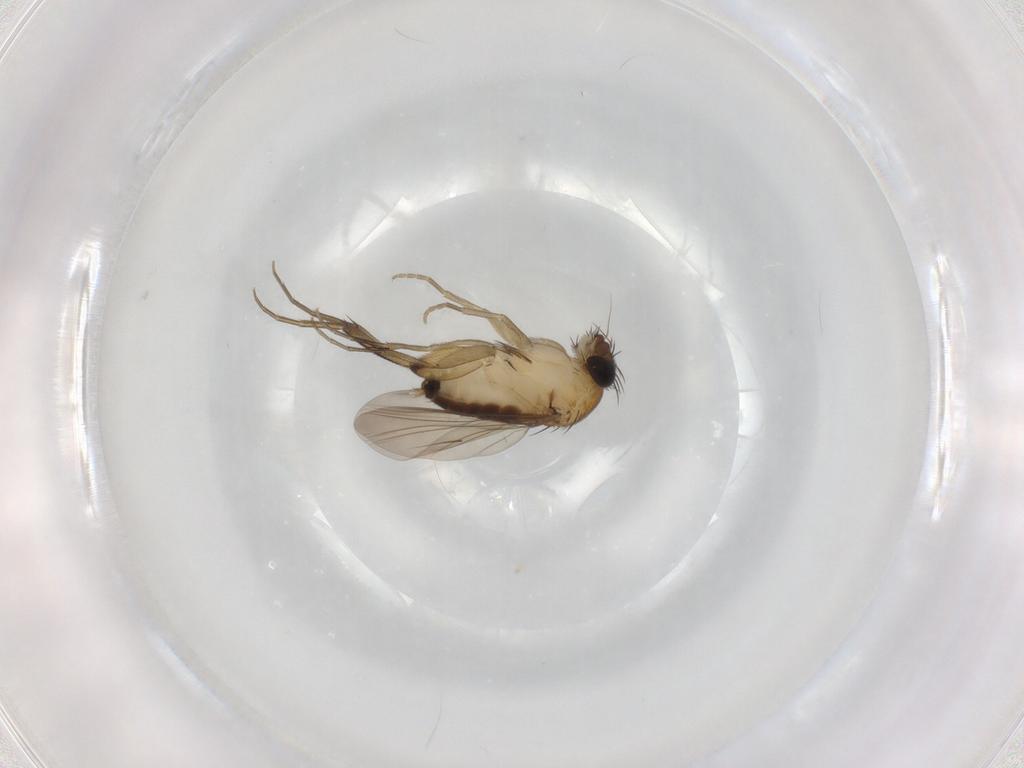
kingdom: Animalia
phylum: Arthropoda
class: Insecta
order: Diptera
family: Phoridae
